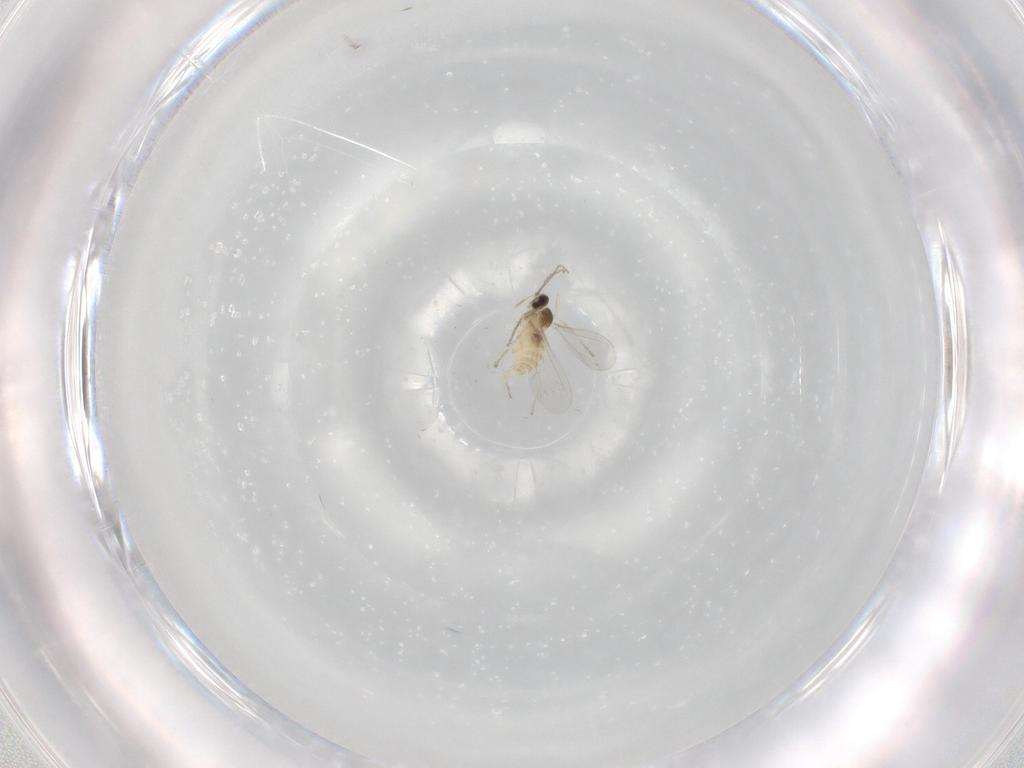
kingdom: Animalia
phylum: Arthropoda
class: Insecta
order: Diptera
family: Cecidomyiidae
